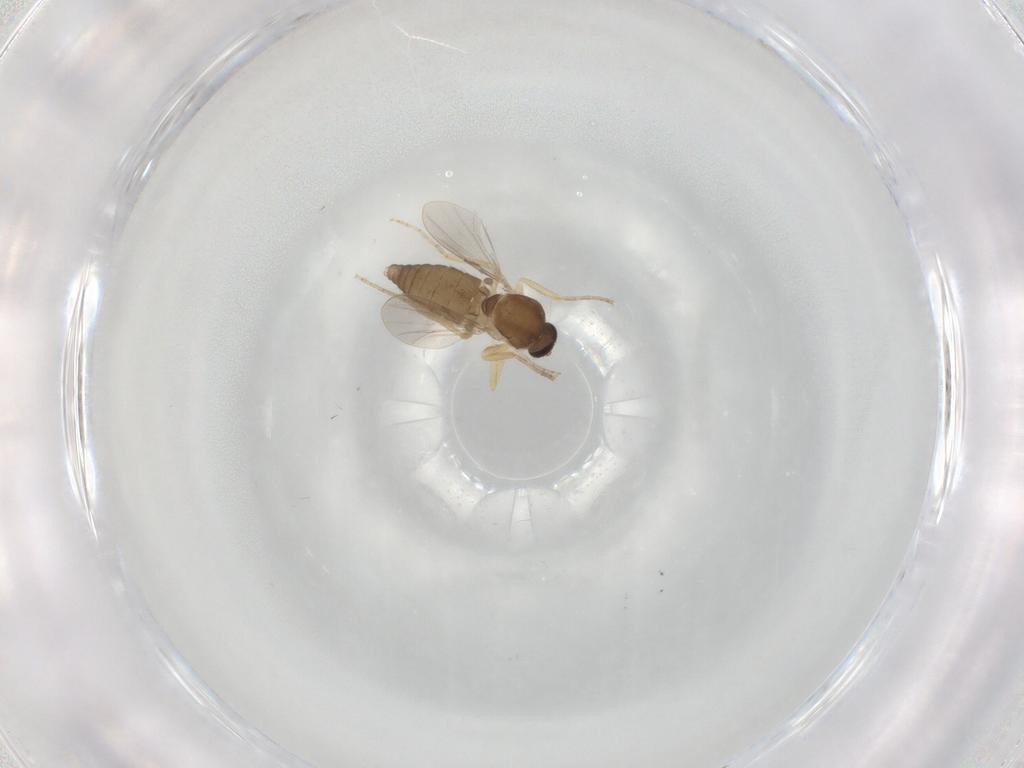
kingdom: Animalia
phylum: Arthropoda
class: Insecta
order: Diptera
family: Ceratopogonidae
